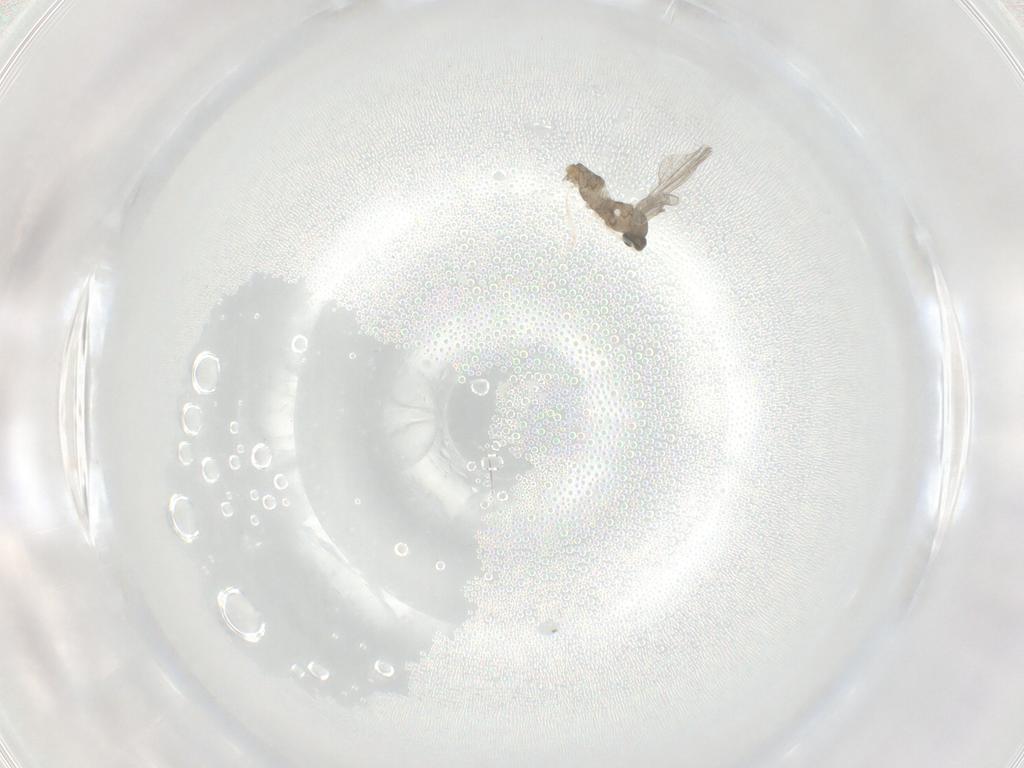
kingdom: Animalia
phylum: Arthropoda
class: Insecta
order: Diptera
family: Cecidomyiidae
